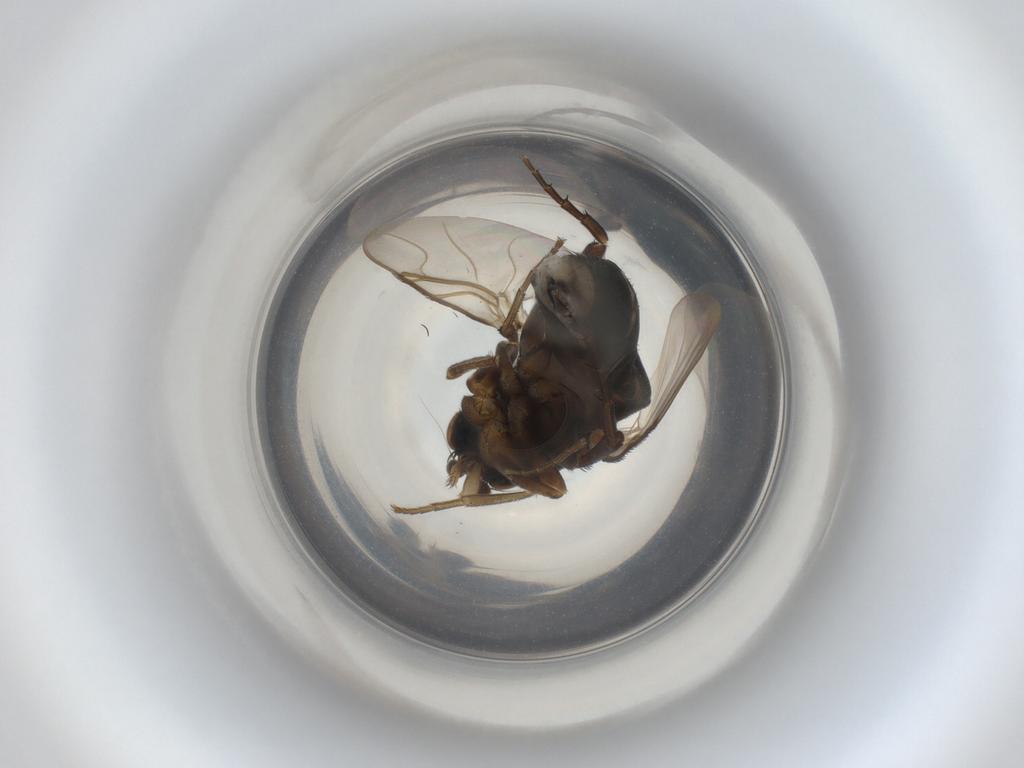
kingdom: Animalia
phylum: Arthropoda
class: Insecta
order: Diptera
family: Phoridae
